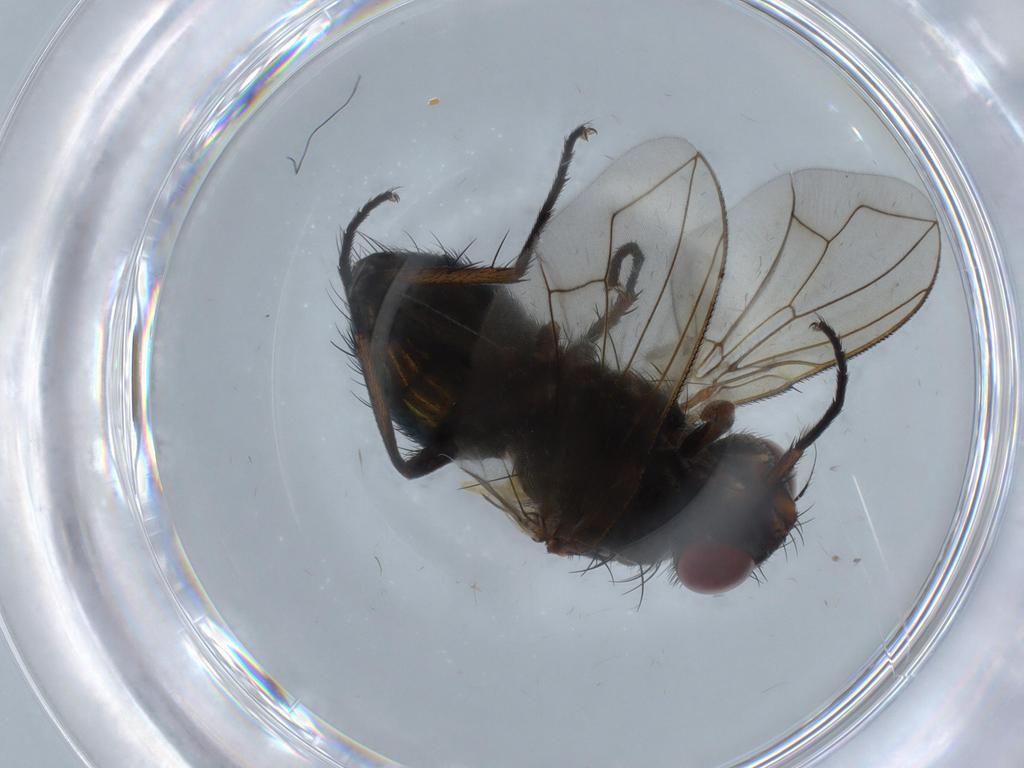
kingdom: Animalia
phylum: Arthropoda
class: Insecta
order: Diptera
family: Calliphoridae
